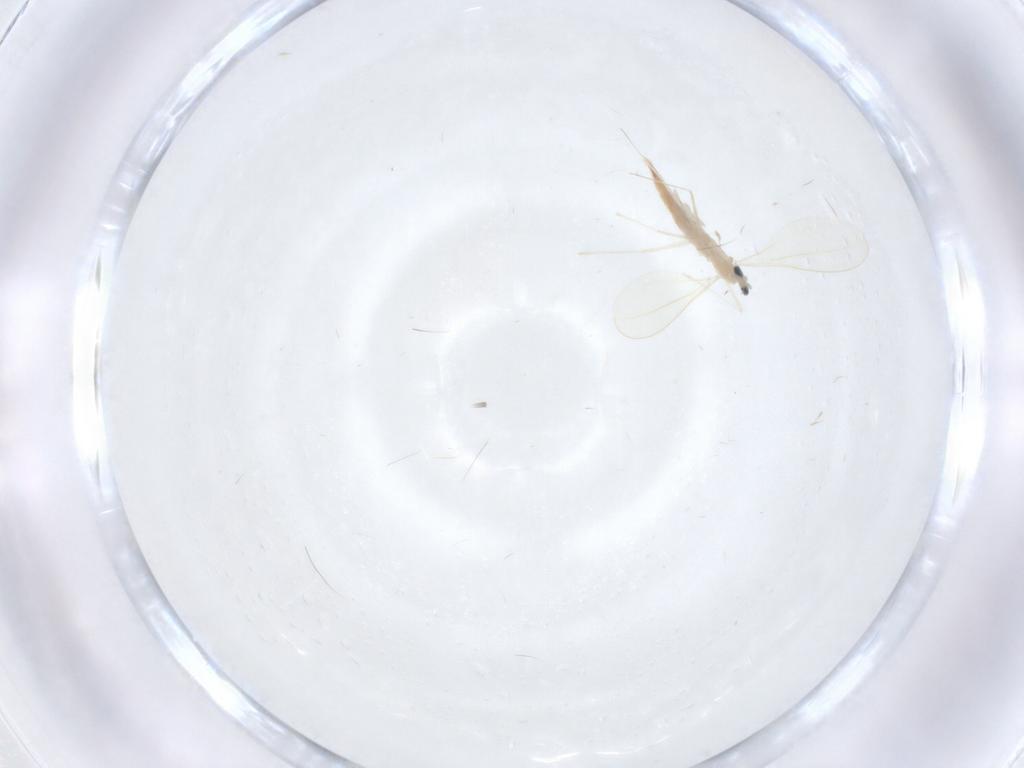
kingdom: Animalia
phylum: Arthropoda
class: Insecta
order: Diptera
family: Cecidomyiidae
